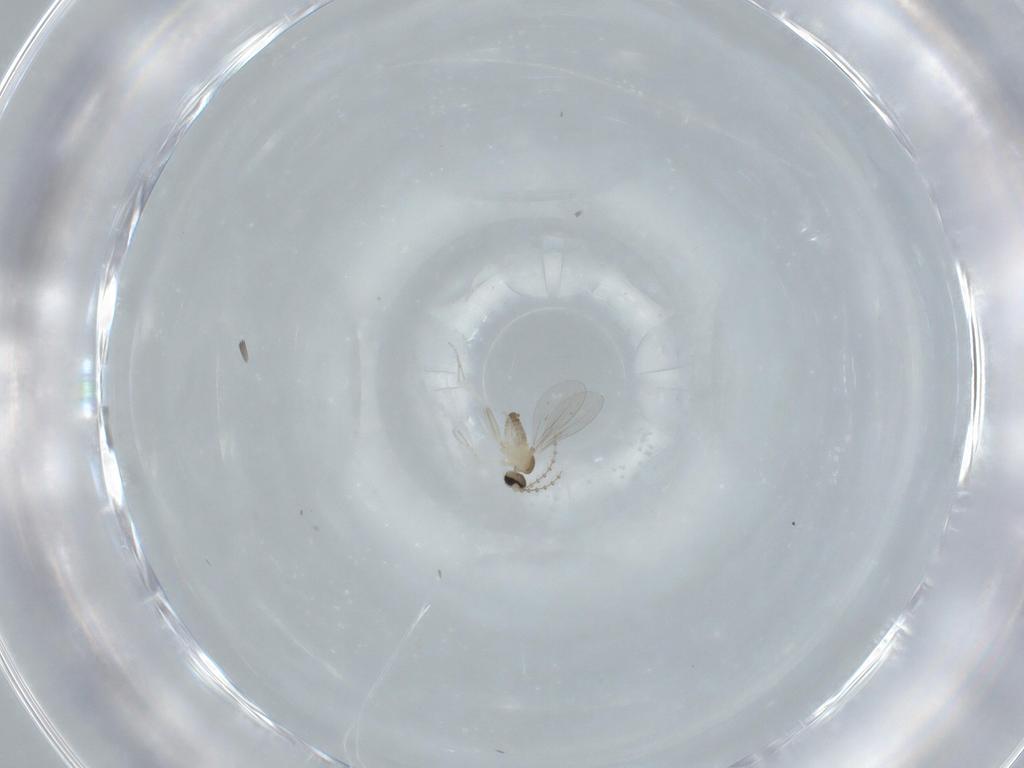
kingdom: Animalia
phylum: Arthropoda
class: Insecta
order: Diptera
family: Cecidomyiidae
